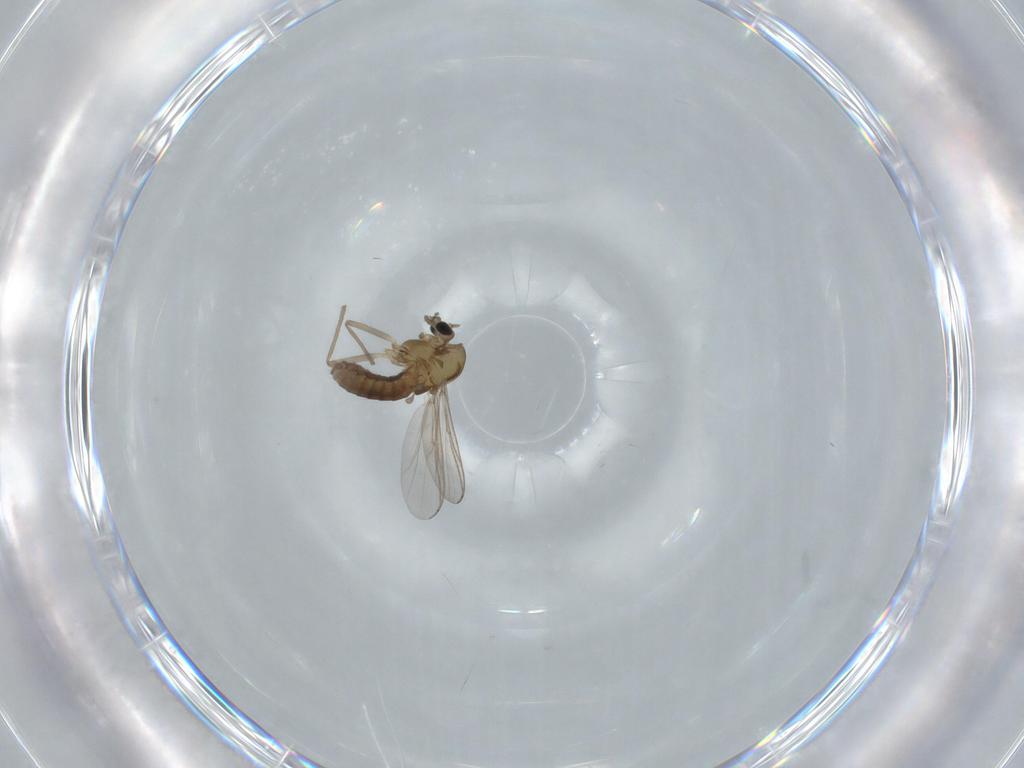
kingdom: Animalia
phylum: Arthropoda
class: Insecta
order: Diptera
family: Chironomidae
